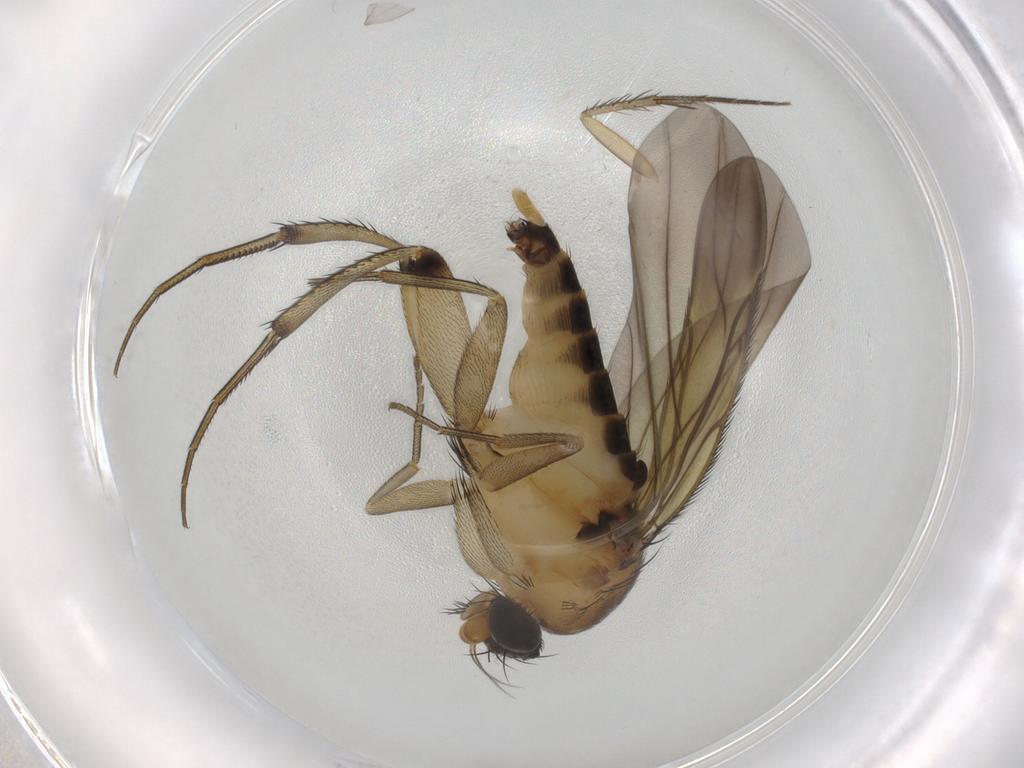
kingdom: Animalia
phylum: Arthropoda
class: Insecta
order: Diptera
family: Phoridae
